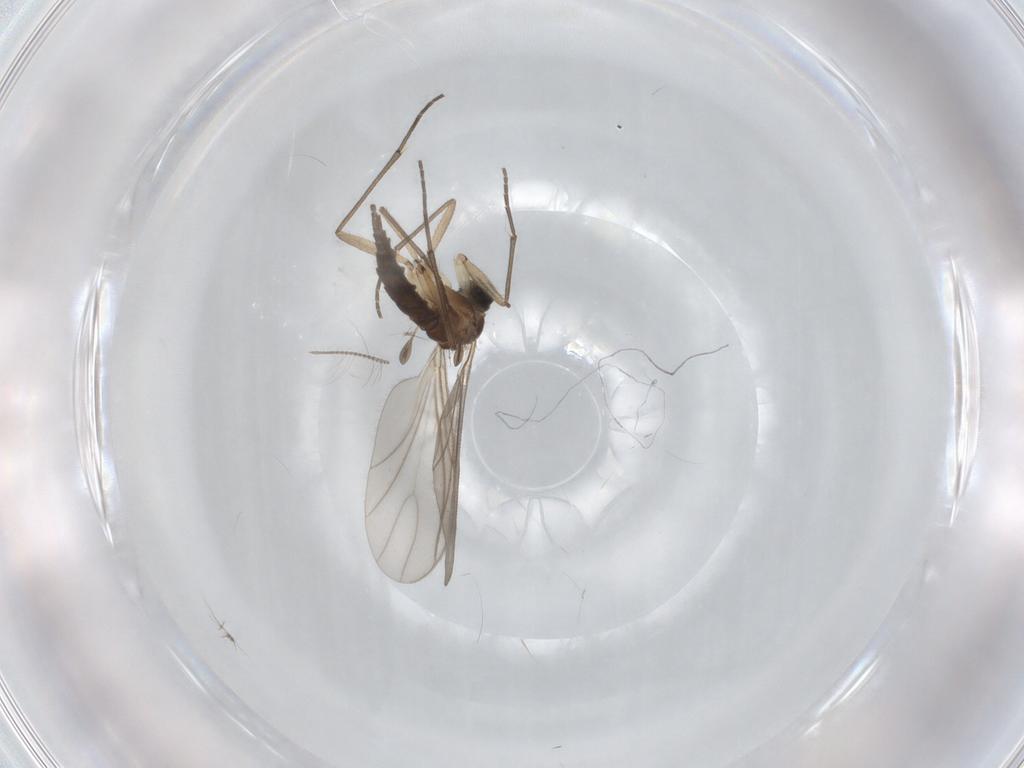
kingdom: Animalia
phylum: Arthropoda
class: Insecta
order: Diptera
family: Sciaridae
